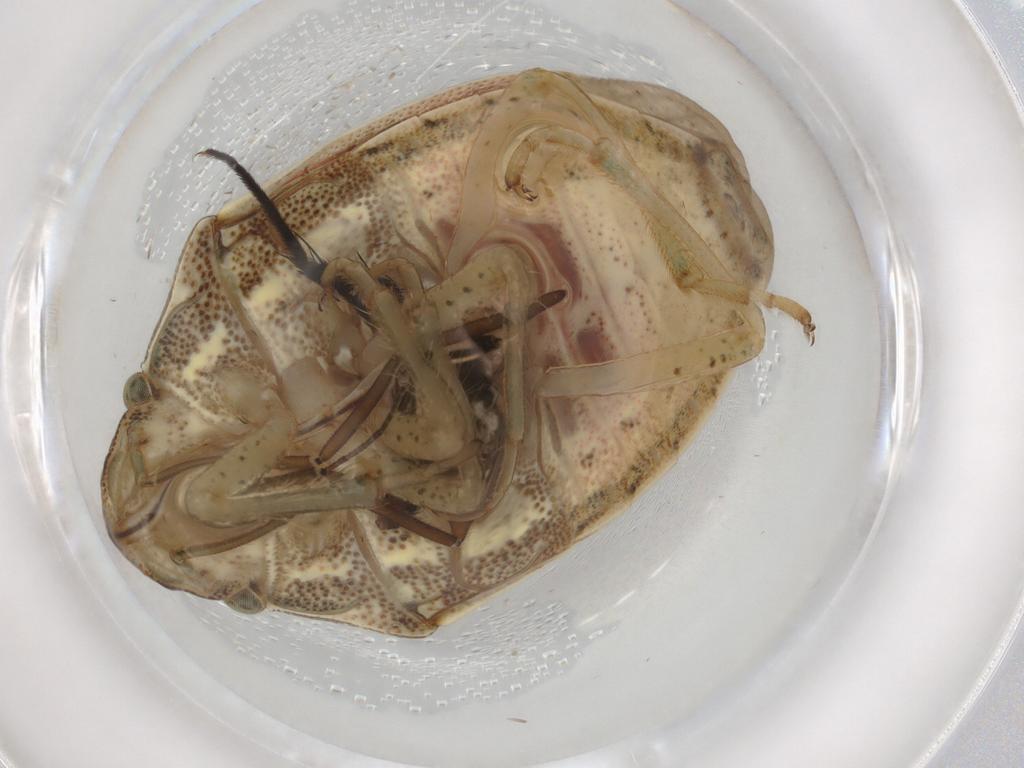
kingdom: Animalia
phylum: Arthropoda
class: Insecta
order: Hemiptera
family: Pentatomidae
